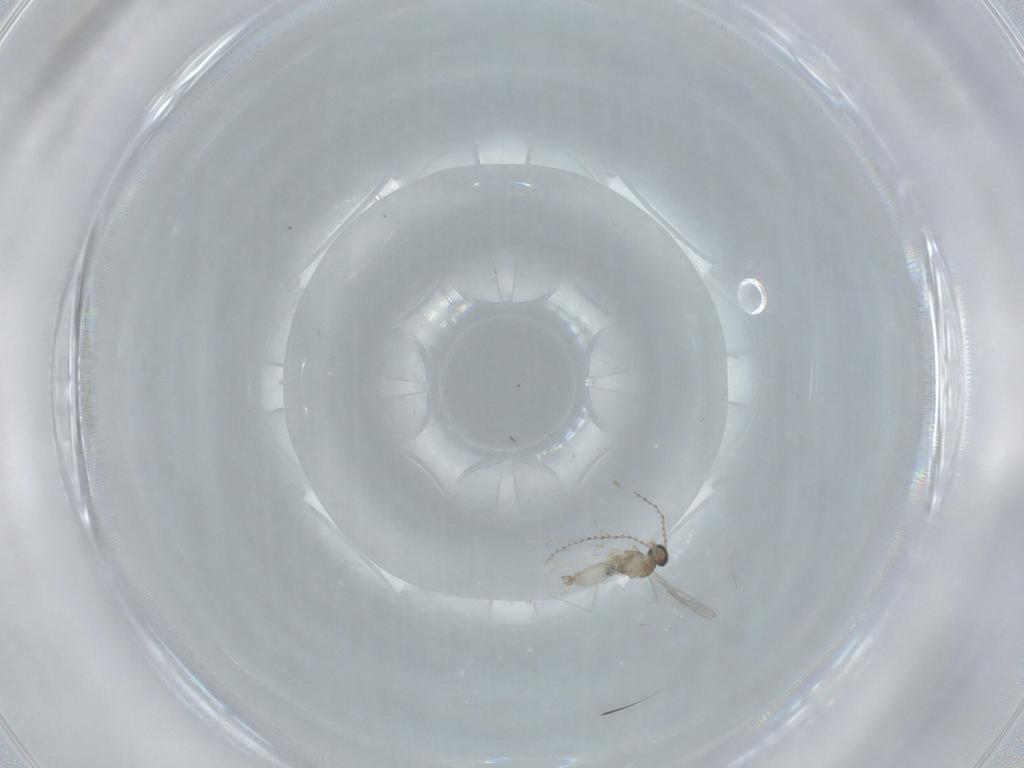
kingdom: Animalia
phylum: Arthropoda
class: Insecta
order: Diptera
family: Cecidomyiidae
